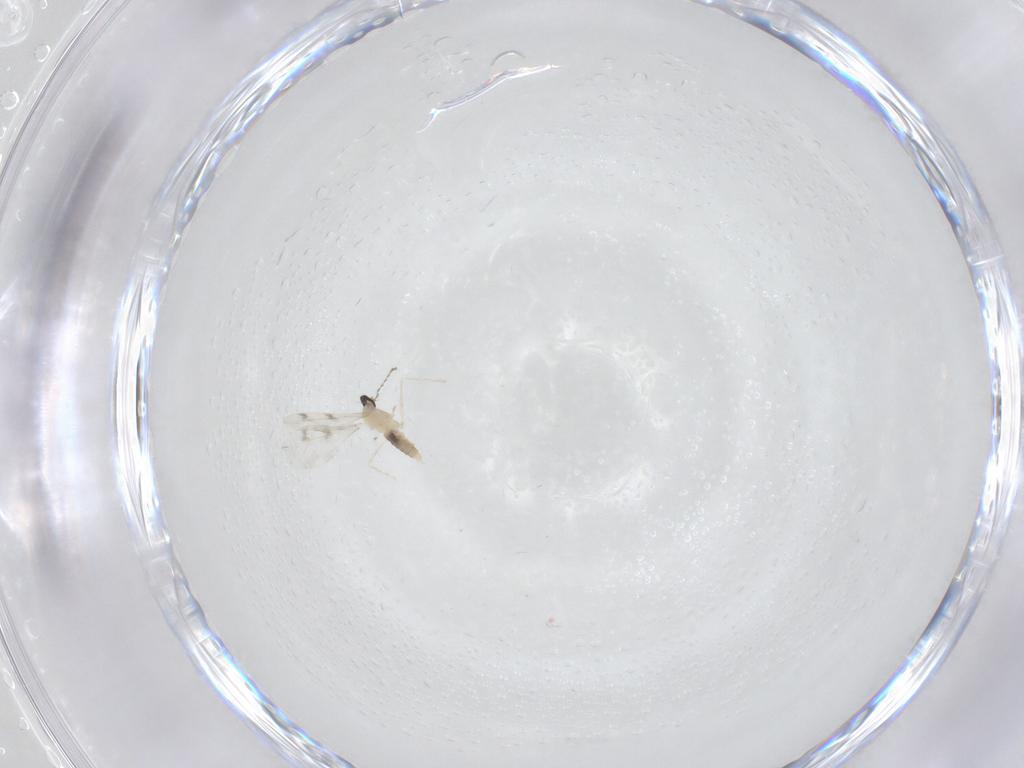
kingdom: Animalia
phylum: Arthropoda
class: Insecta
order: Diptera
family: Cecidomyiidae
